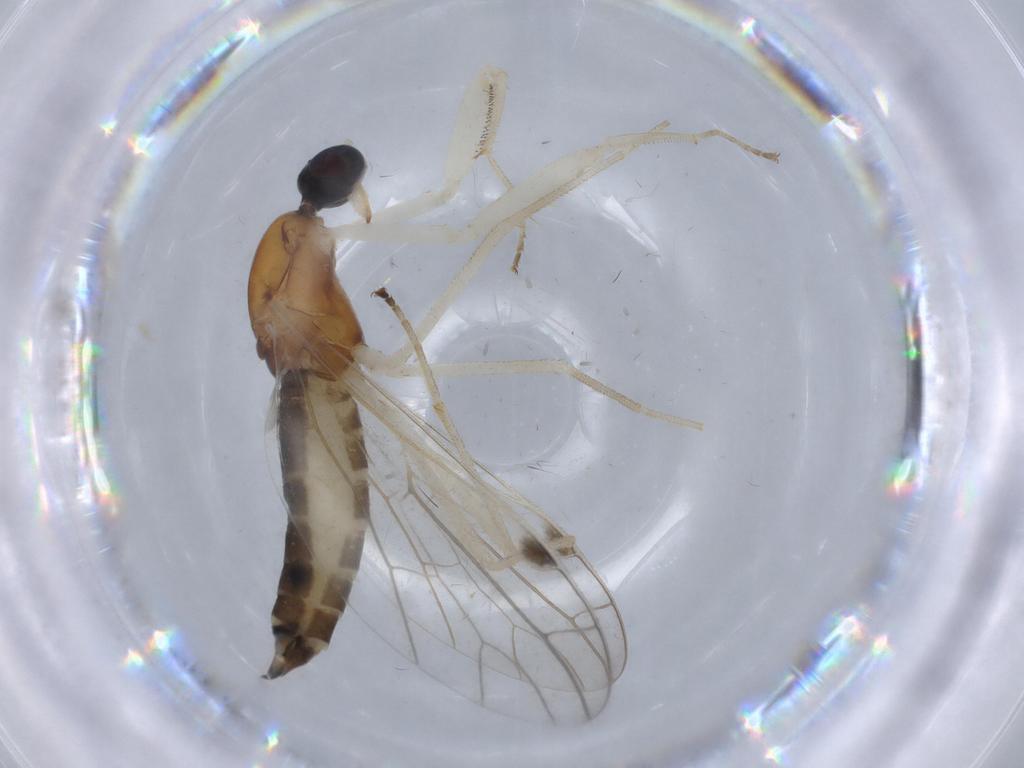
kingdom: Animalia
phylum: Arthropoda
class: Insecta
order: Diptera
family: Empididae
